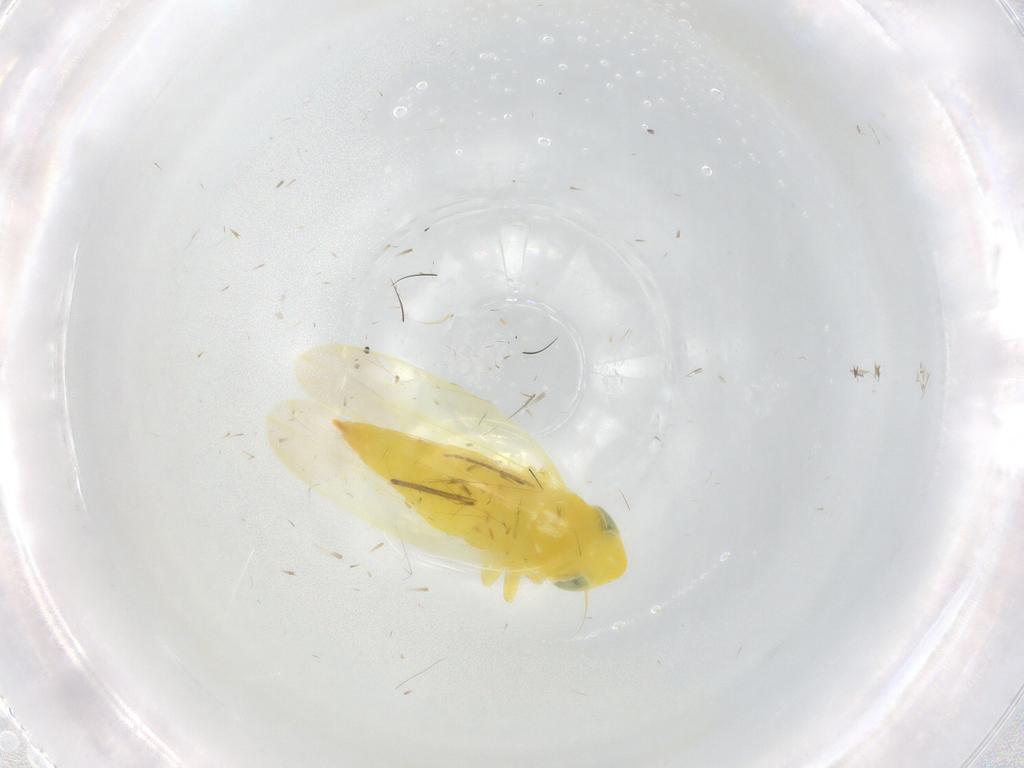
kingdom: Animalia
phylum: Arthropoda
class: Insecta
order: Hemiptera
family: Cicadellidae
